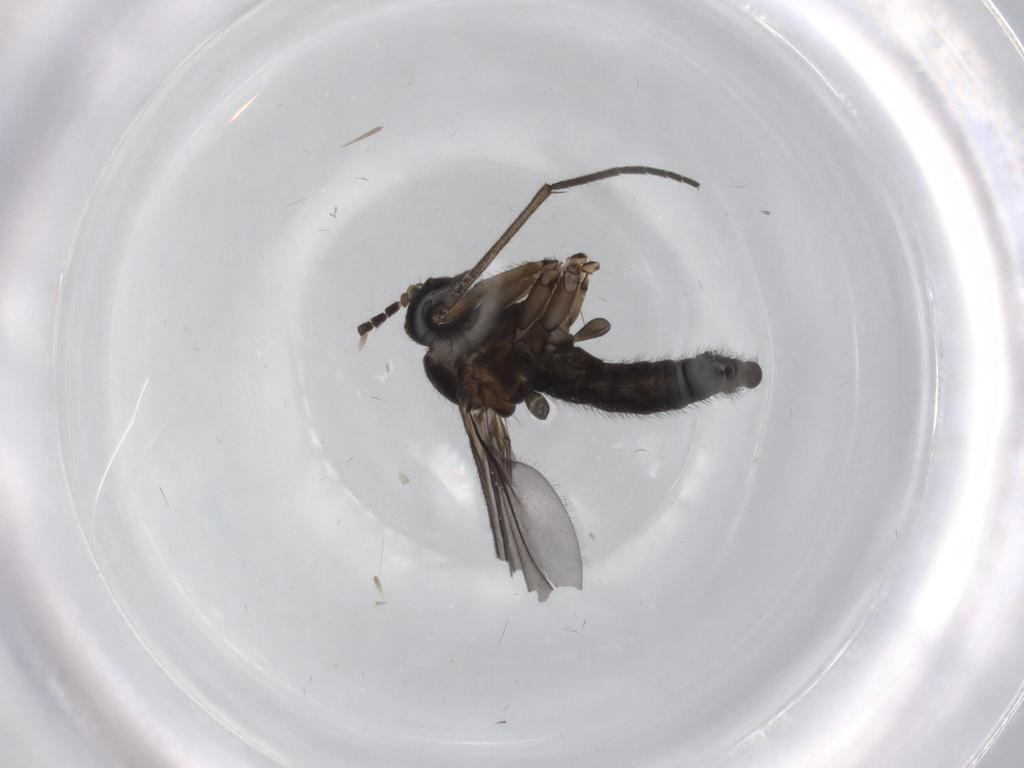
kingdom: Animalia
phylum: Arthropoda
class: Insecta
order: Diptera
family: Sciaridae
